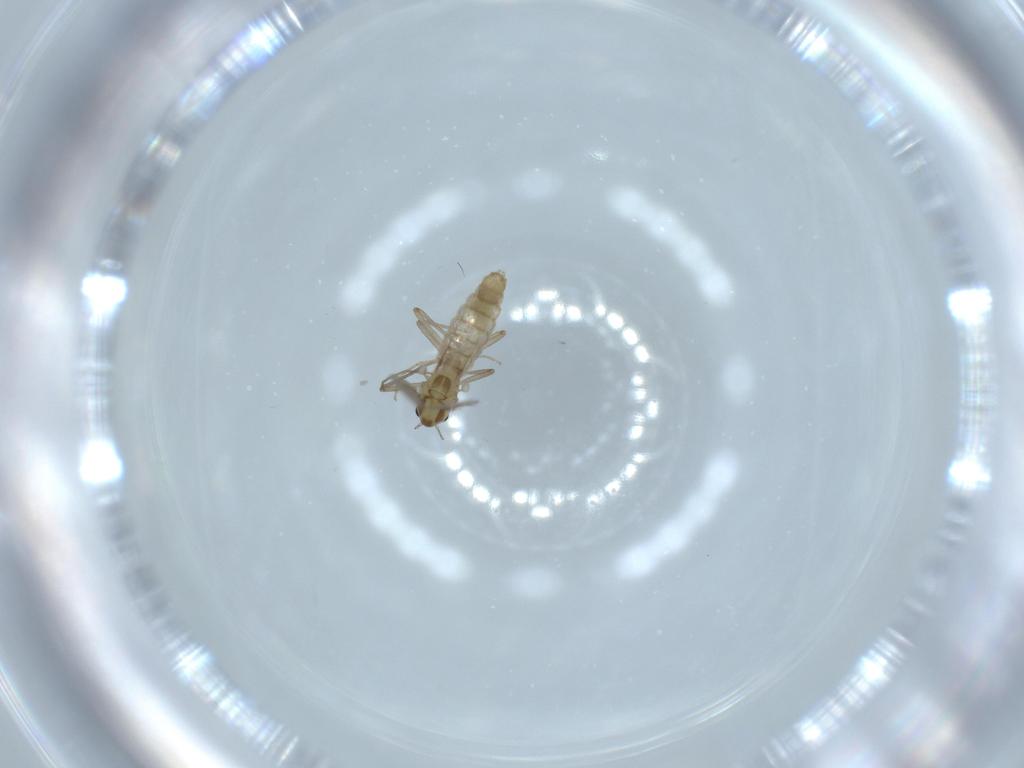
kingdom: Animalia
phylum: Arthropoda
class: Insecta
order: Diptera
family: Chironomidae
